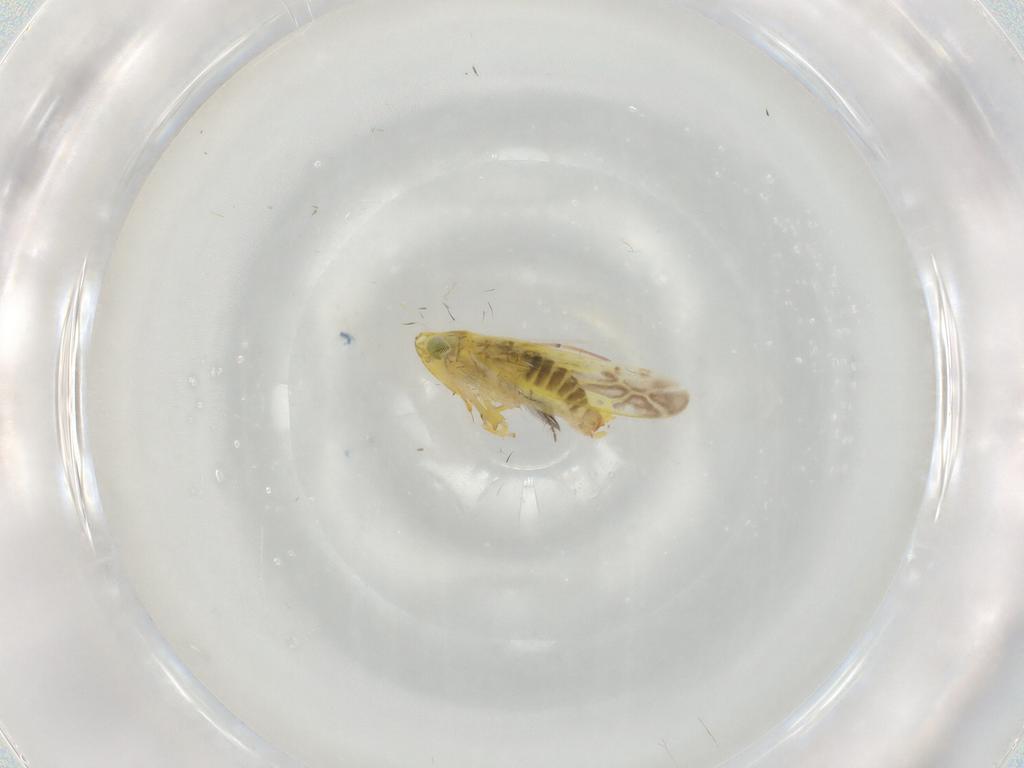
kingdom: Animalia
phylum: Arthropoda
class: Insecta
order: Hemiptera
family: Cicadellidae
